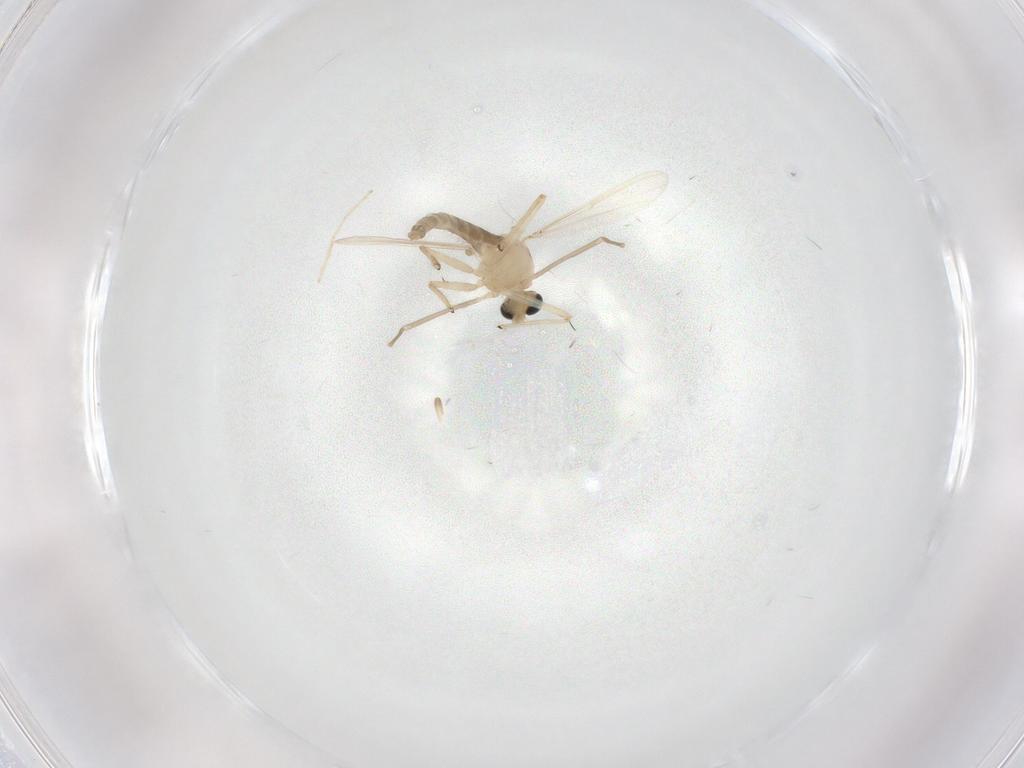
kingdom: Animalia
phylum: Arthropoda
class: Insecta
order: Diptera
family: Chironomidae
